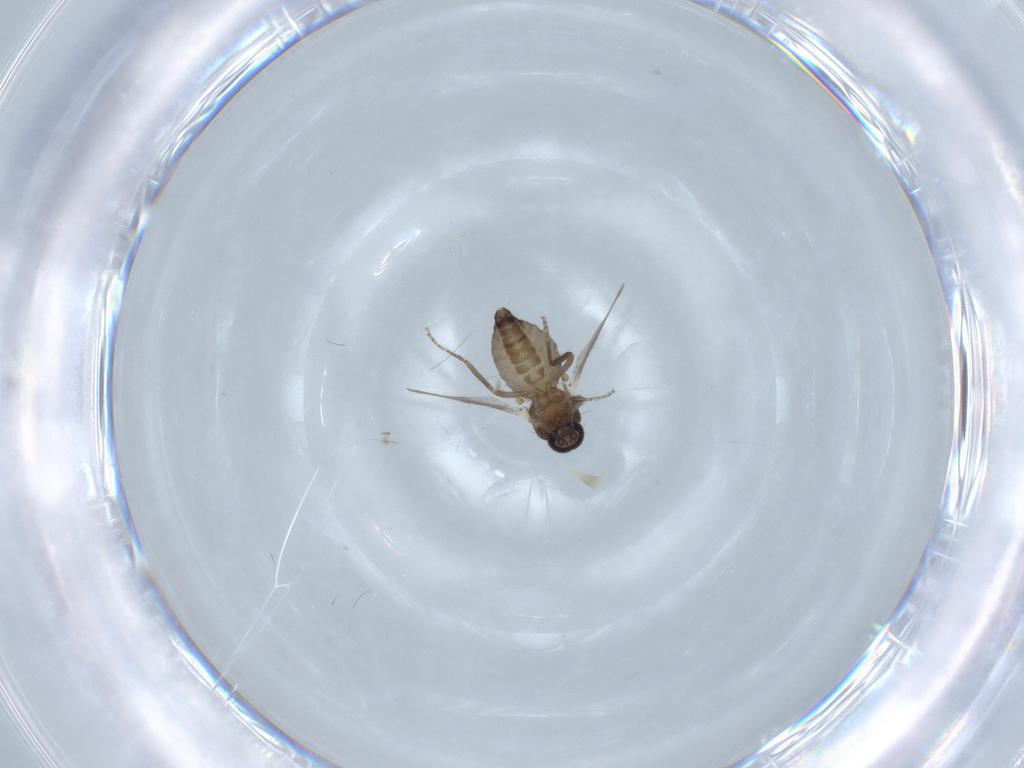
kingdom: Animalia
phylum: Arthropoda
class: Insecta
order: Diptera
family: Ceratopogonidae
